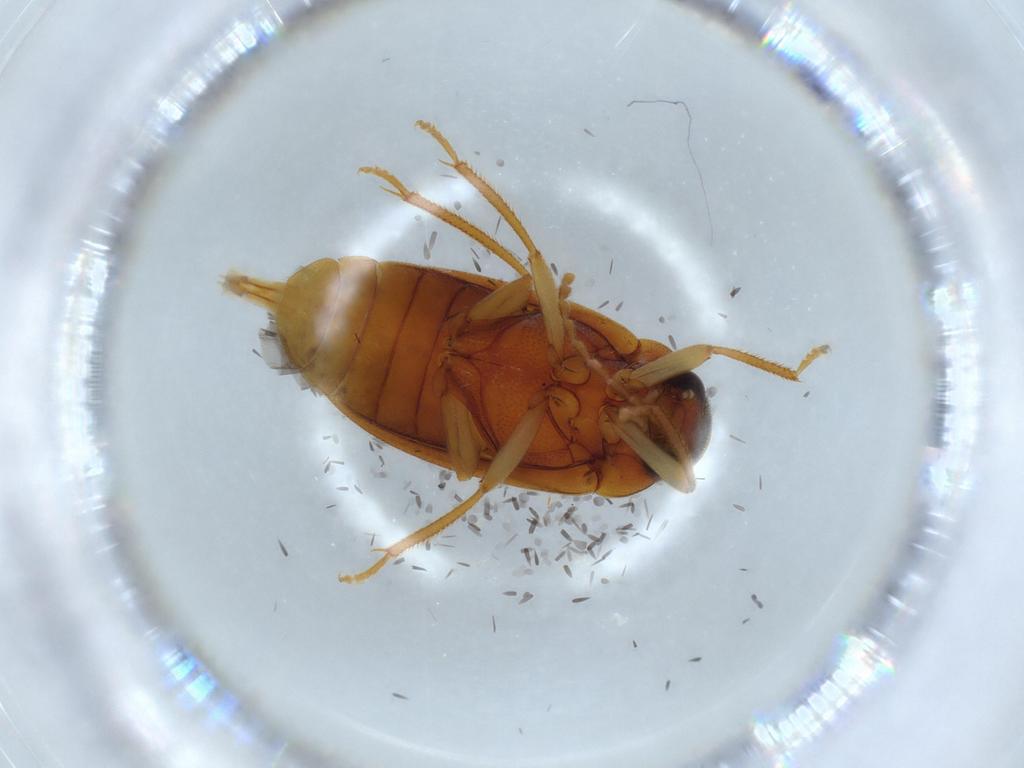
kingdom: Animalia
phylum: Arthropoda
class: Insecta
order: Coleoptera
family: Ptilodactylidae
